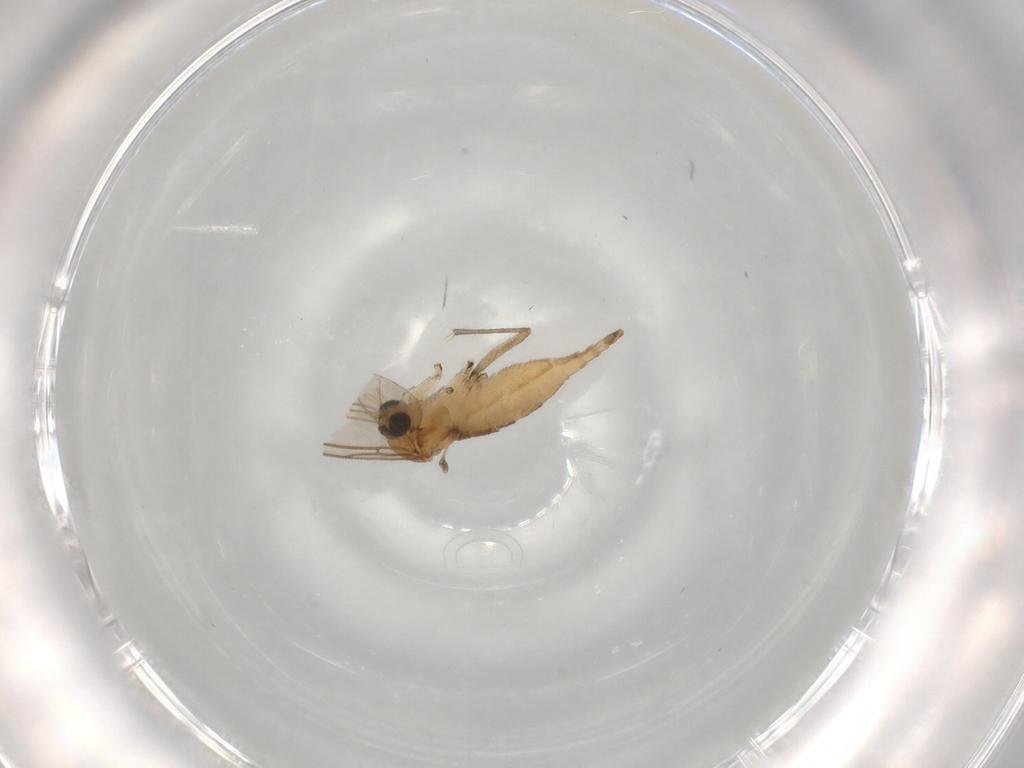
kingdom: Animalia
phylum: Arthropoda
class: Insecta
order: Diptera
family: Sciaridae
